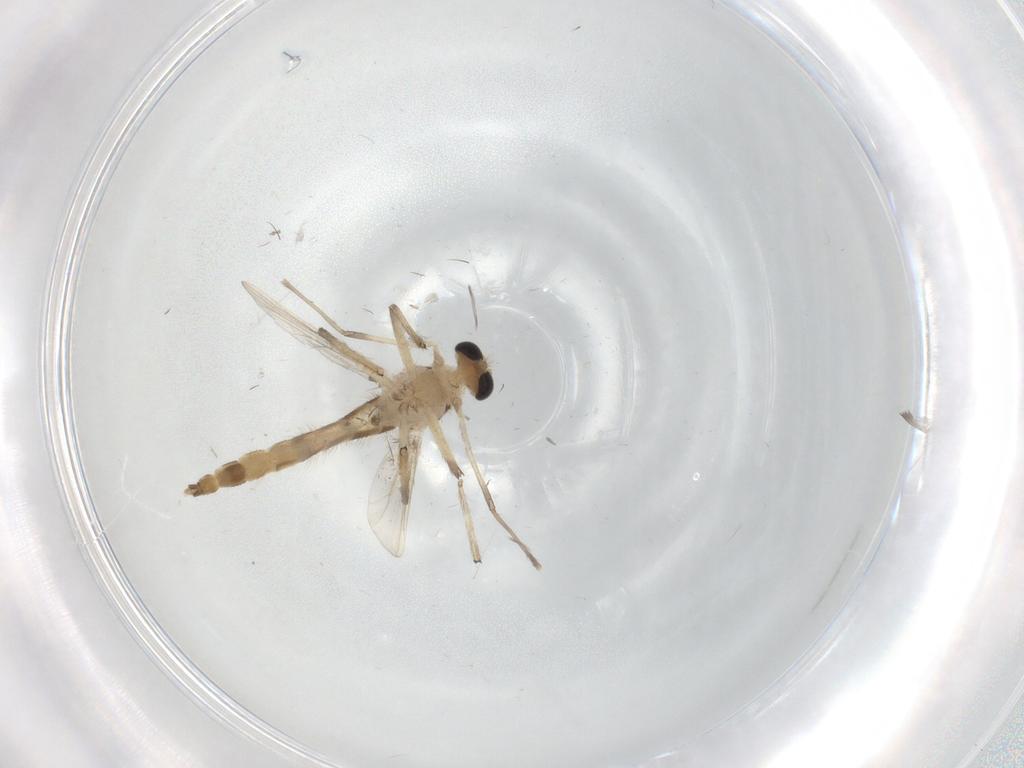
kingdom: Animalia
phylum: Arthropoda
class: Insecta
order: Diptera
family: Chironomidae
